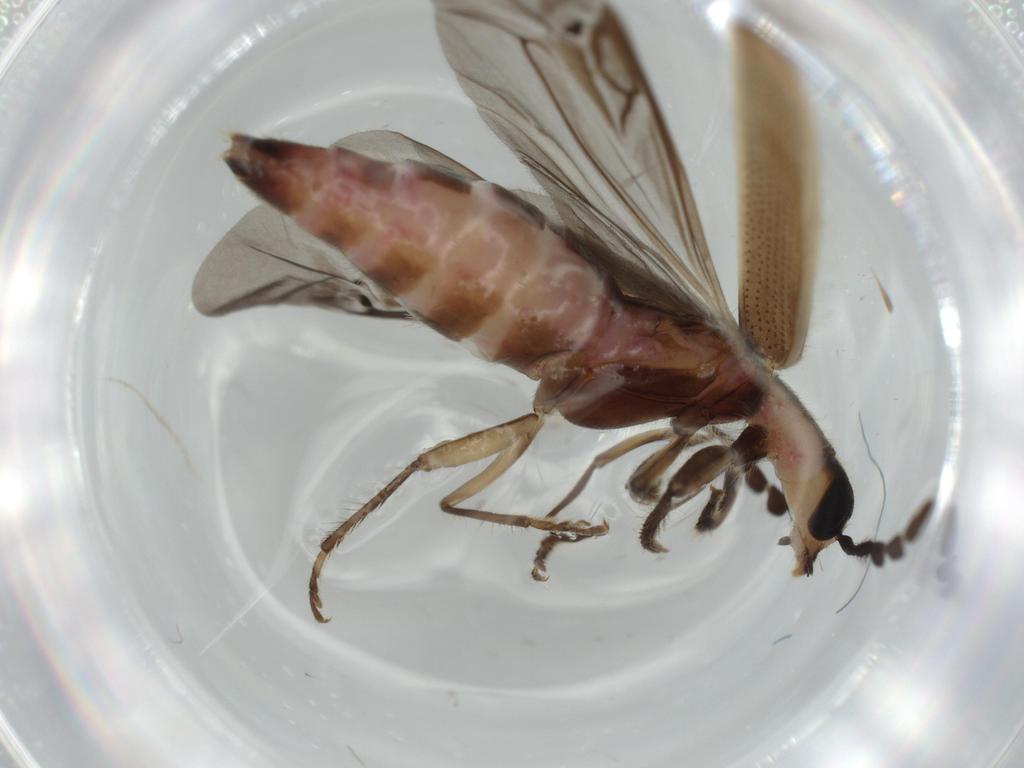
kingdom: Animalia
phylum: Arthropoda
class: Insecta
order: Coleoptera
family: Cleridae
